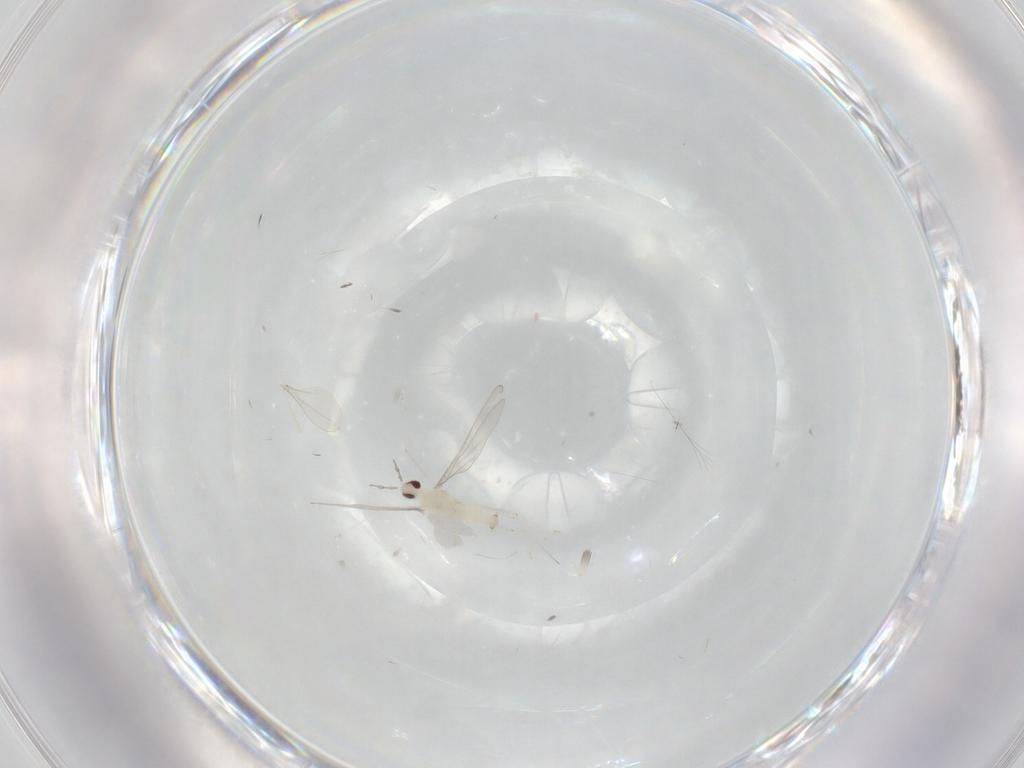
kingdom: Animalia
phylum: Arthropoda
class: Insecta
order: Diptera
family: Cecidomyiidae
